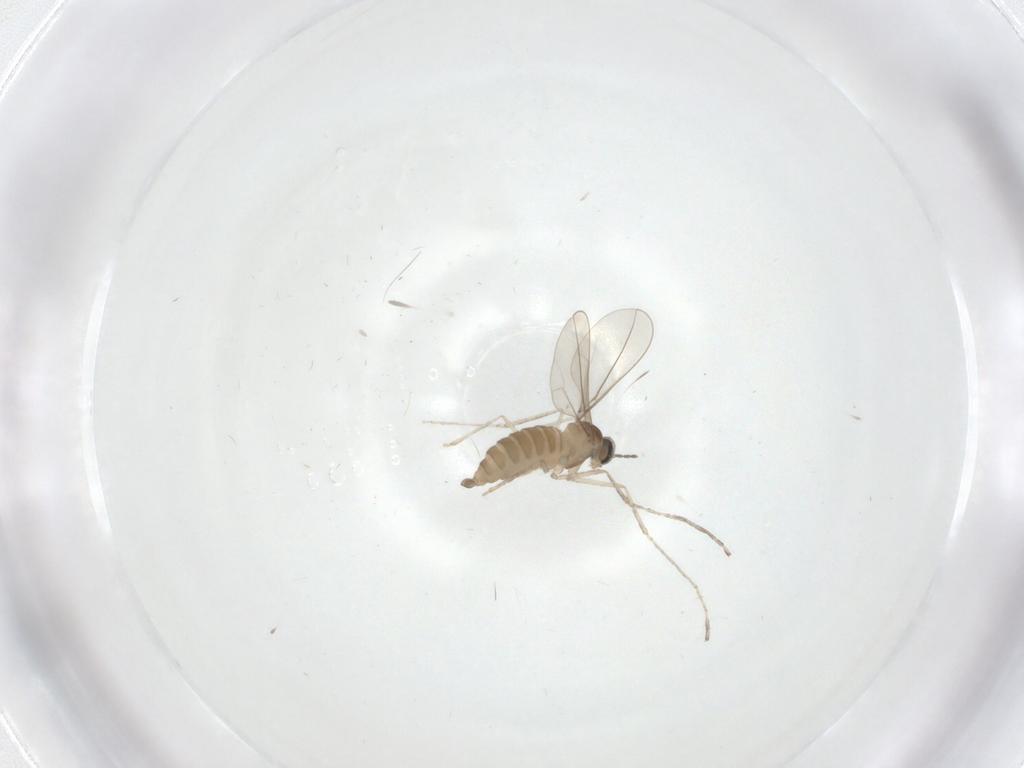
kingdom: Animalia
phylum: Arthropoda
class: Insecta
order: Diptera
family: Cecidomyiidae
